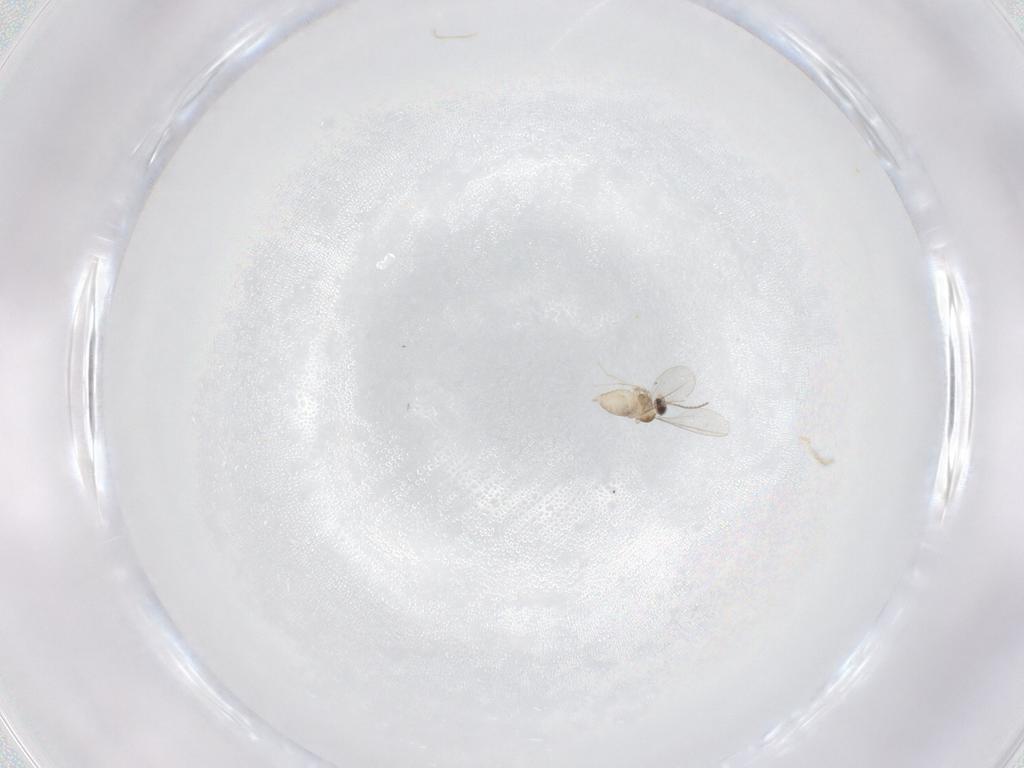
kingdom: Animalia
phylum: Arthropoda
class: Insecta
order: Diptera
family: Cecidomyiidae
